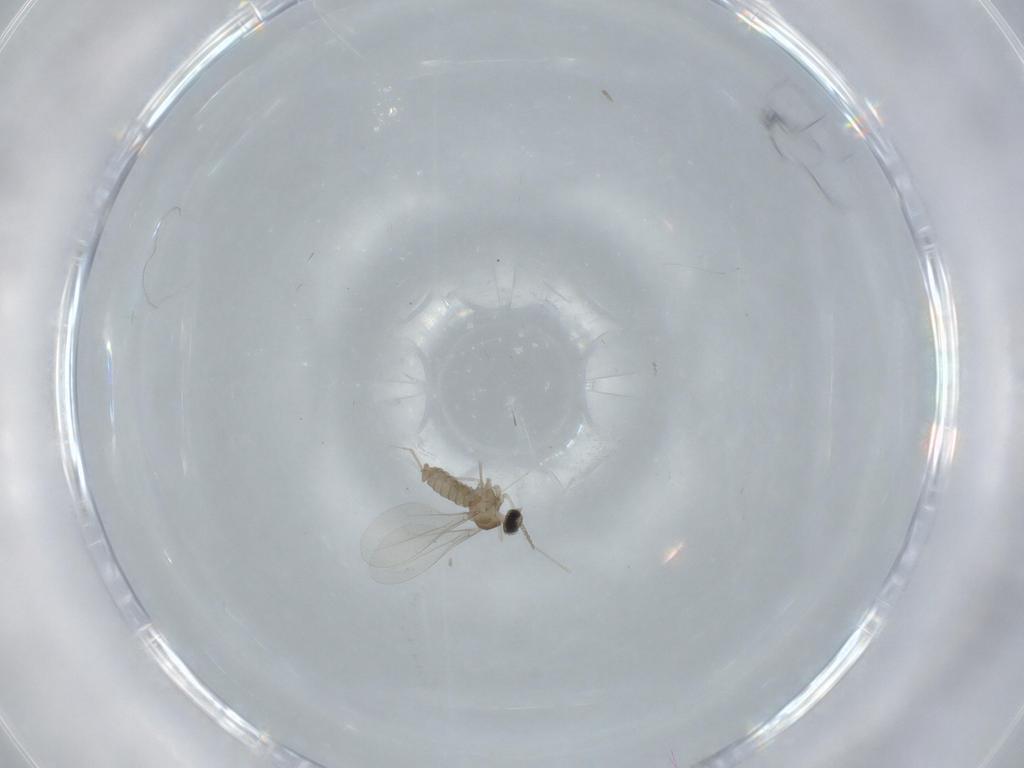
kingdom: Animalia
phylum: Arthropoda
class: Insecta
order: Diptera
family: Cecidomyiidae
